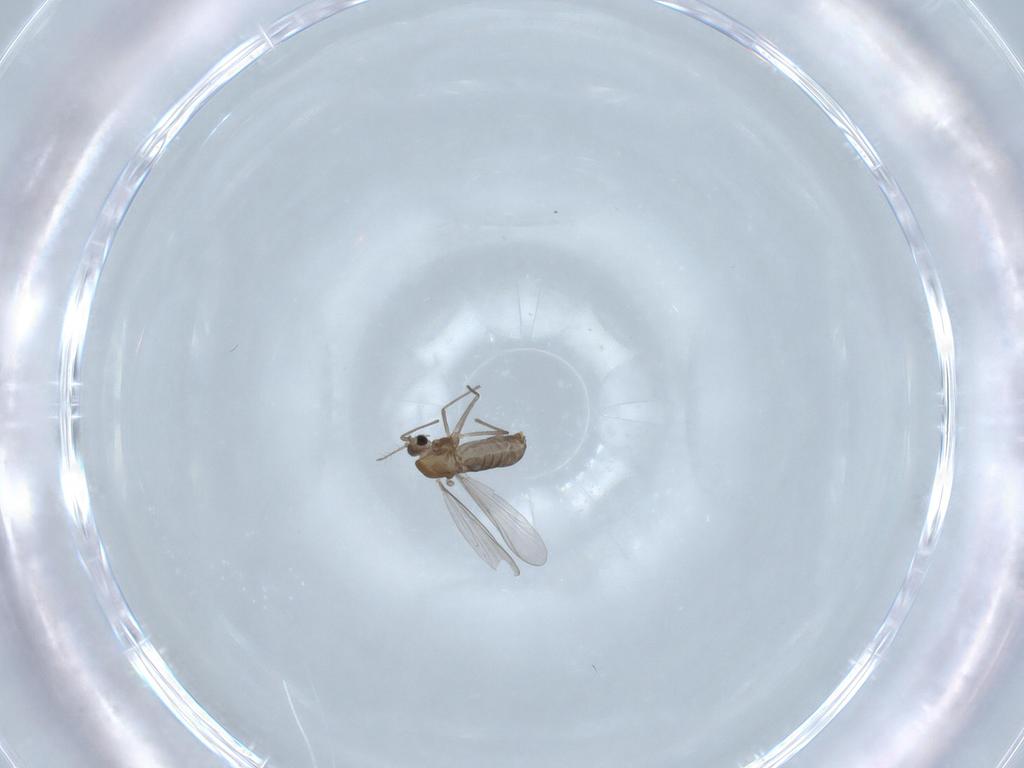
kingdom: Animalia
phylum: Arthropoda
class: Insecta
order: Diptera
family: Chironomidae
